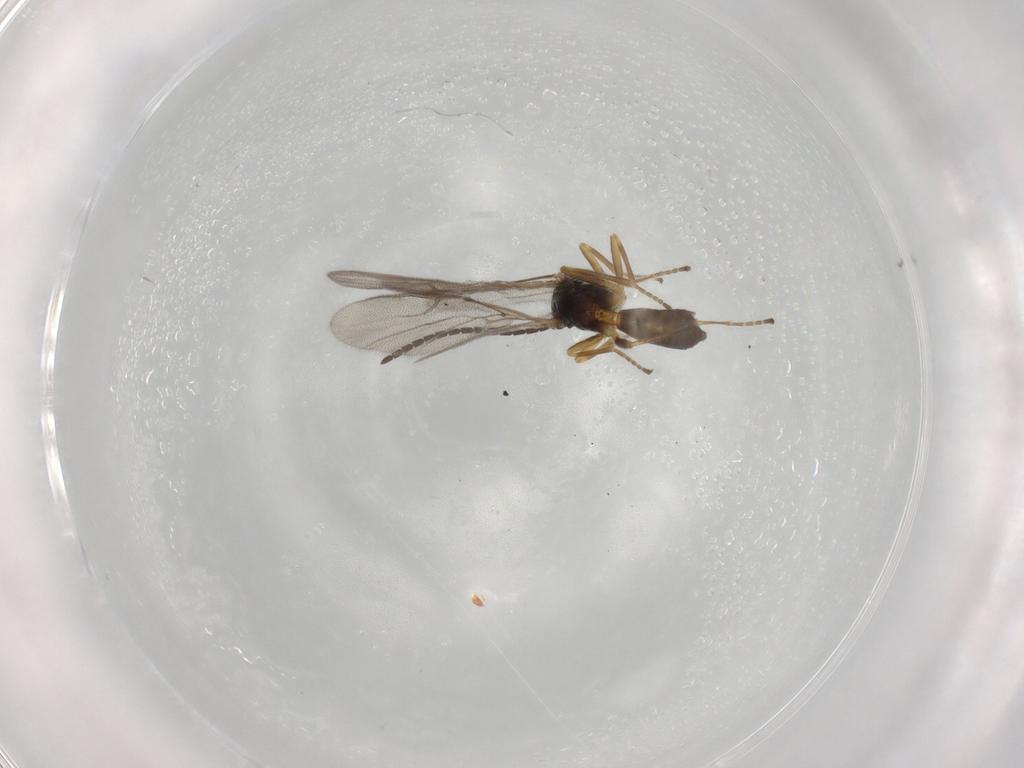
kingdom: Animalia
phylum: Arthropoda
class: Insecta
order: Hymenoptera
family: Braconidae
